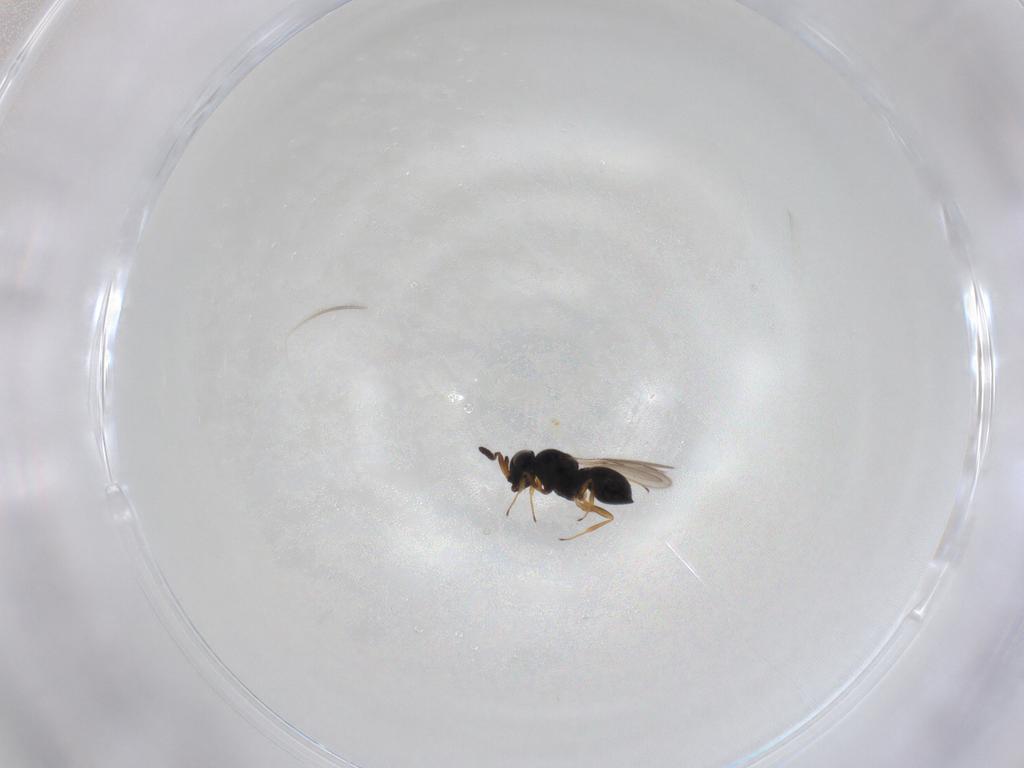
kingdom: Animalia
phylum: Arthropoda
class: Insecta
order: Hymenoptera
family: Scelionidae
